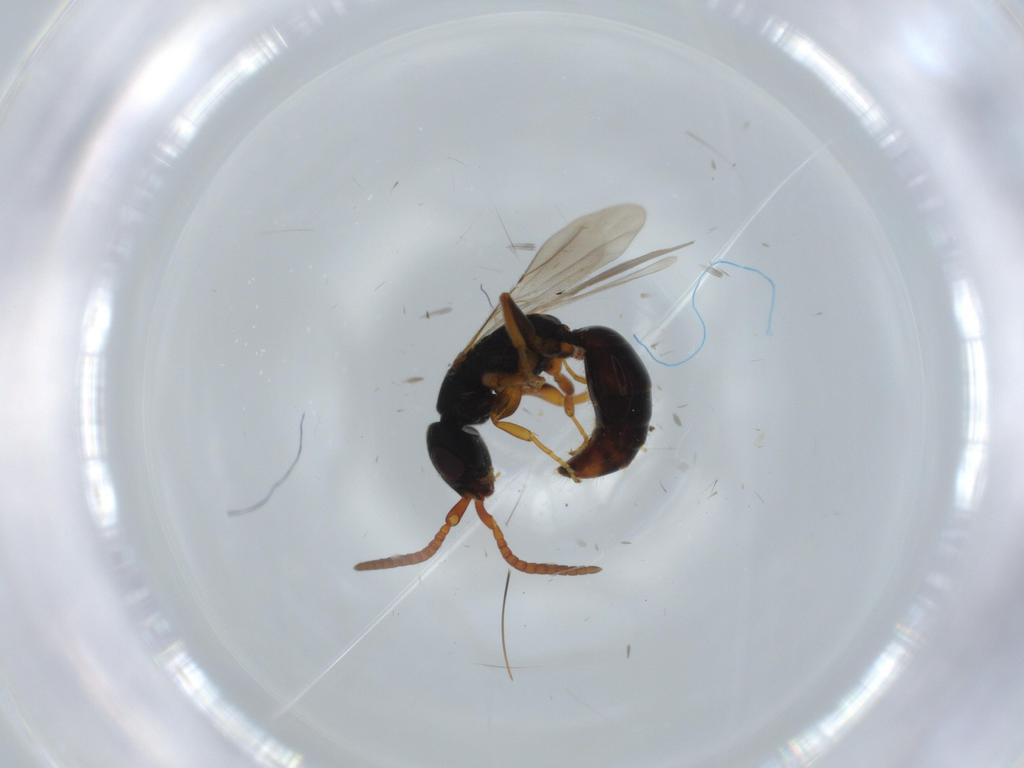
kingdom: Animalia
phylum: Arthropoda
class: Insecta
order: Hymenoptera
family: Bethylidae
